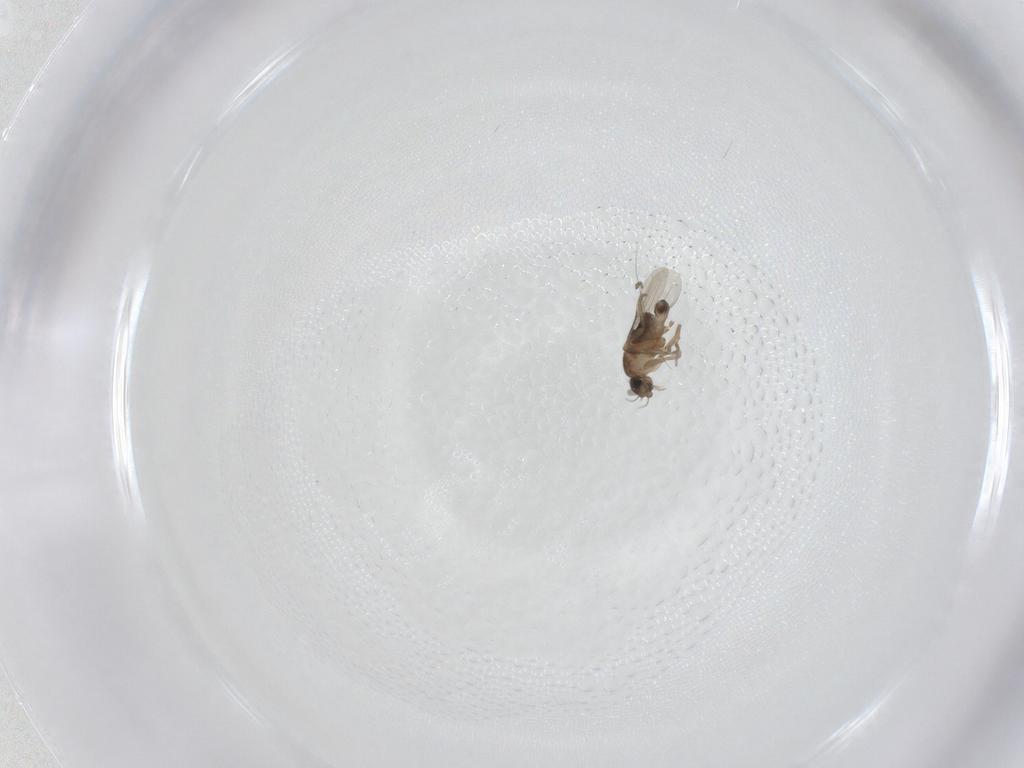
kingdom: Animalia
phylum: Arthropoda
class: Insecta
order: Diptera
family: Phoridae
